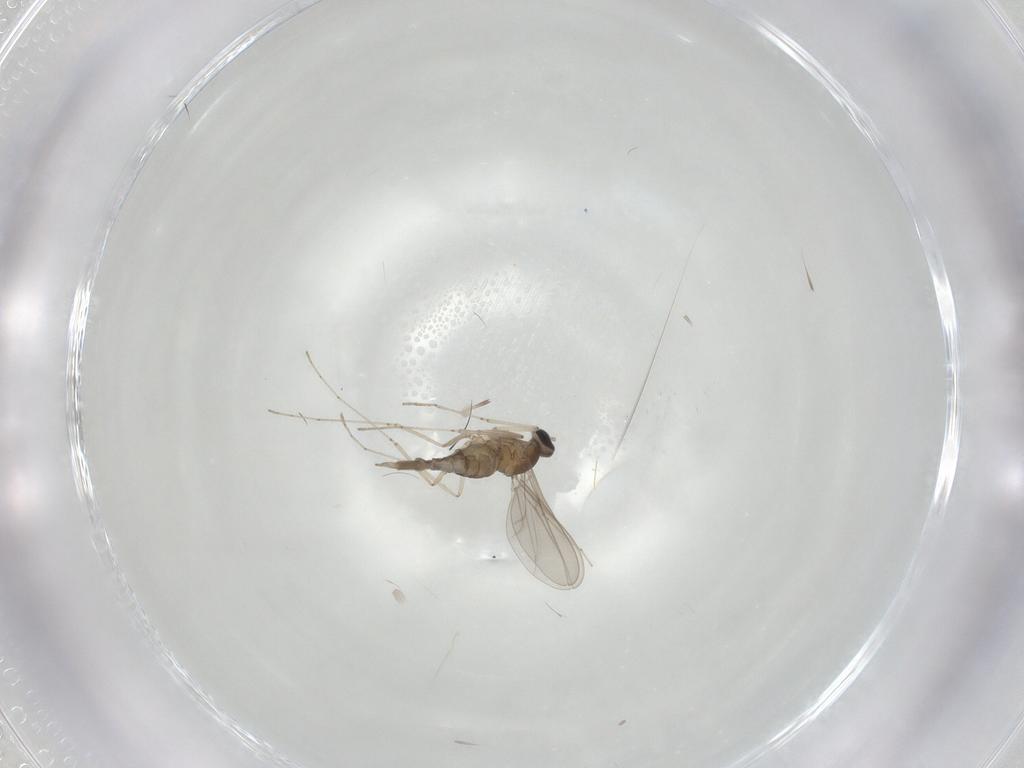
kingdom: Animalia
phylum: Arthropoda
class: Insecta
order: Diptera
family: Cecidomyiidae
